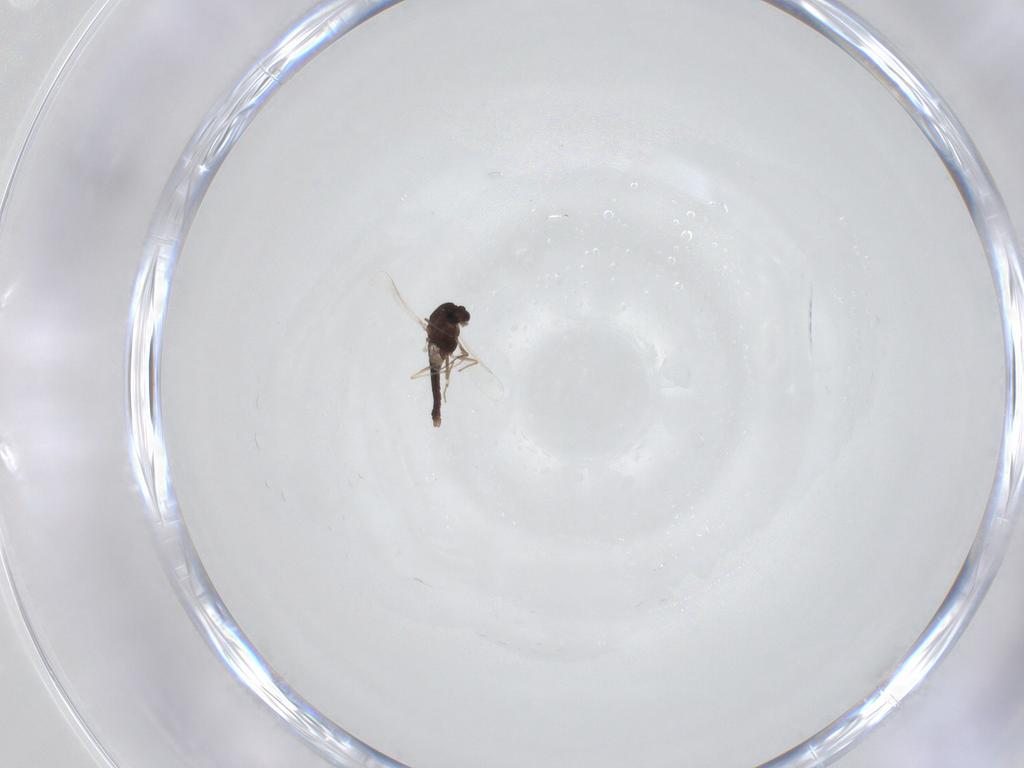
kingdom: Animalia
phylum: Arthropoda
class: Insecta
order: Diptera
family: Chironomidae
